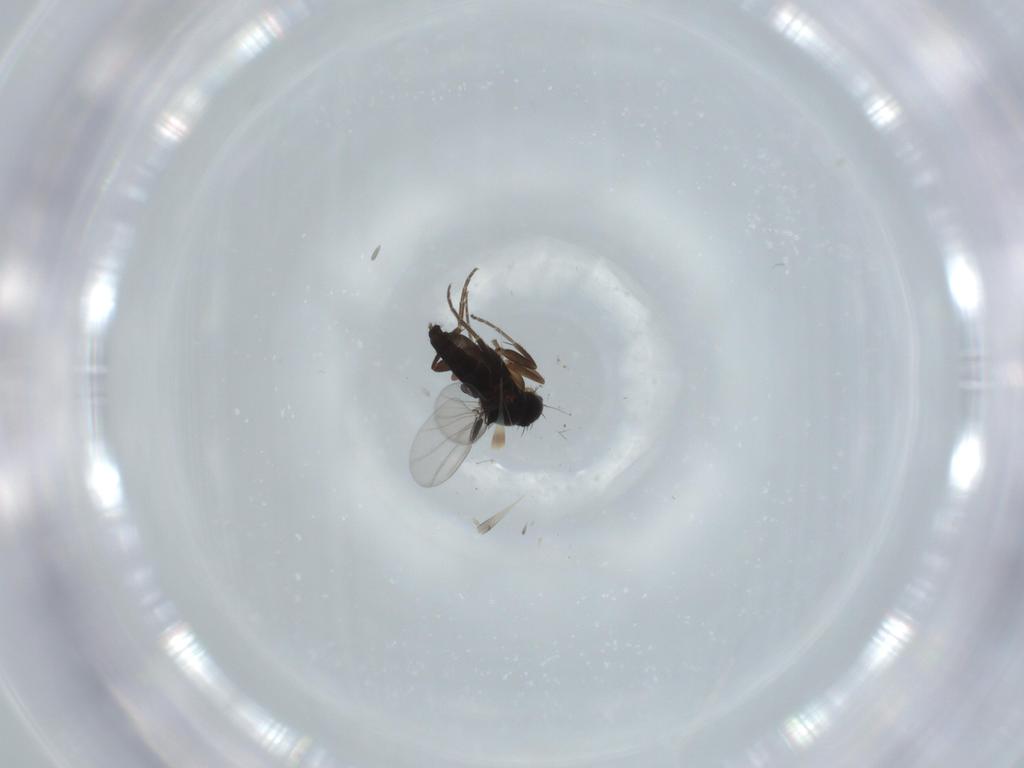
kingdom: Animalia
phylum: Arthropoda
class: Insecta
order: Diptera
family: Phoridae
